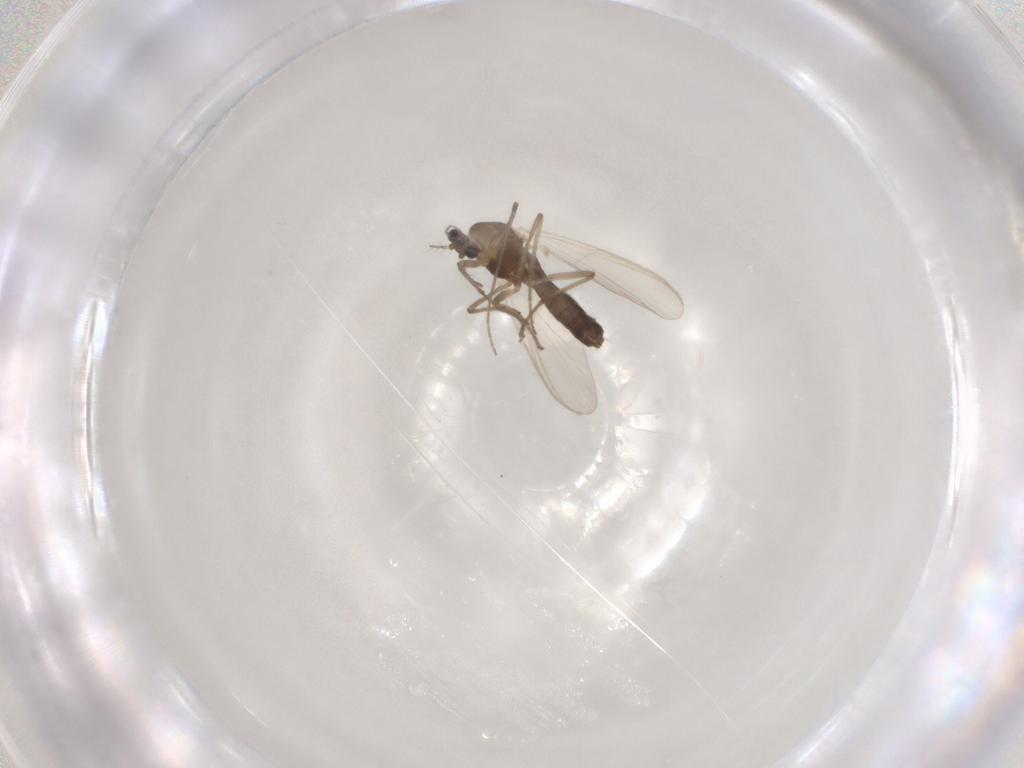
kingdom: Animalia
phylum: Arthropoda
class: Insecta
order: Diptera
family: Chironomidae
